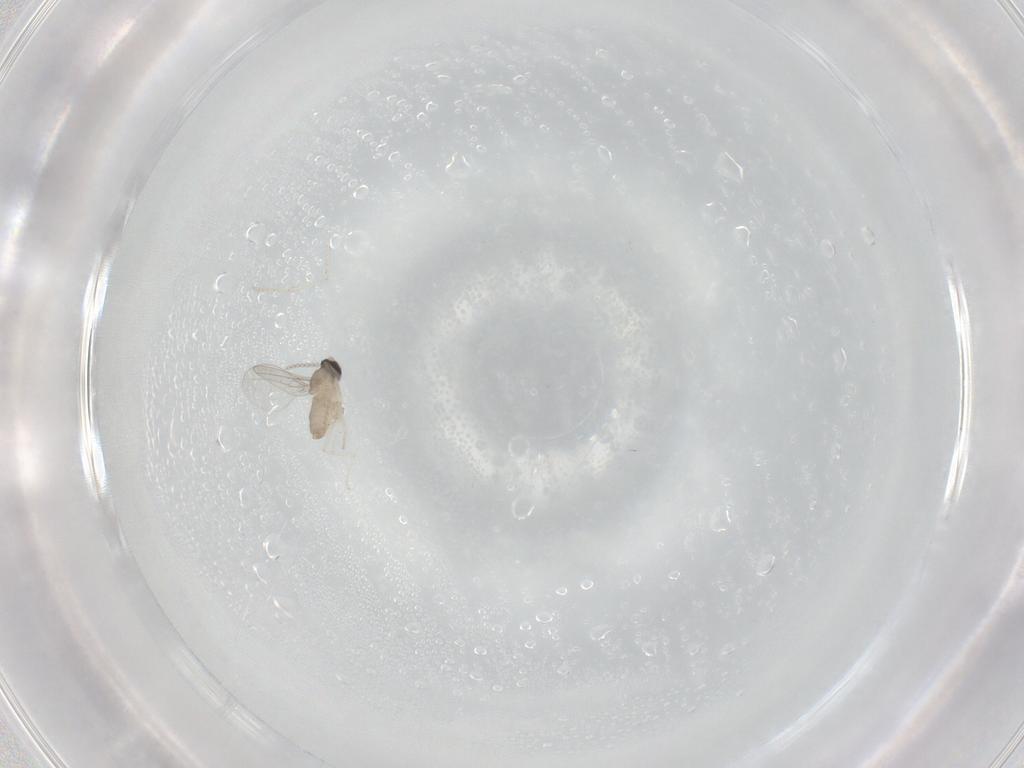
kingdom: Animalia
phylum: Arthropoda
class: Insecta
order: Diptera
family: Cecidomyiidae
